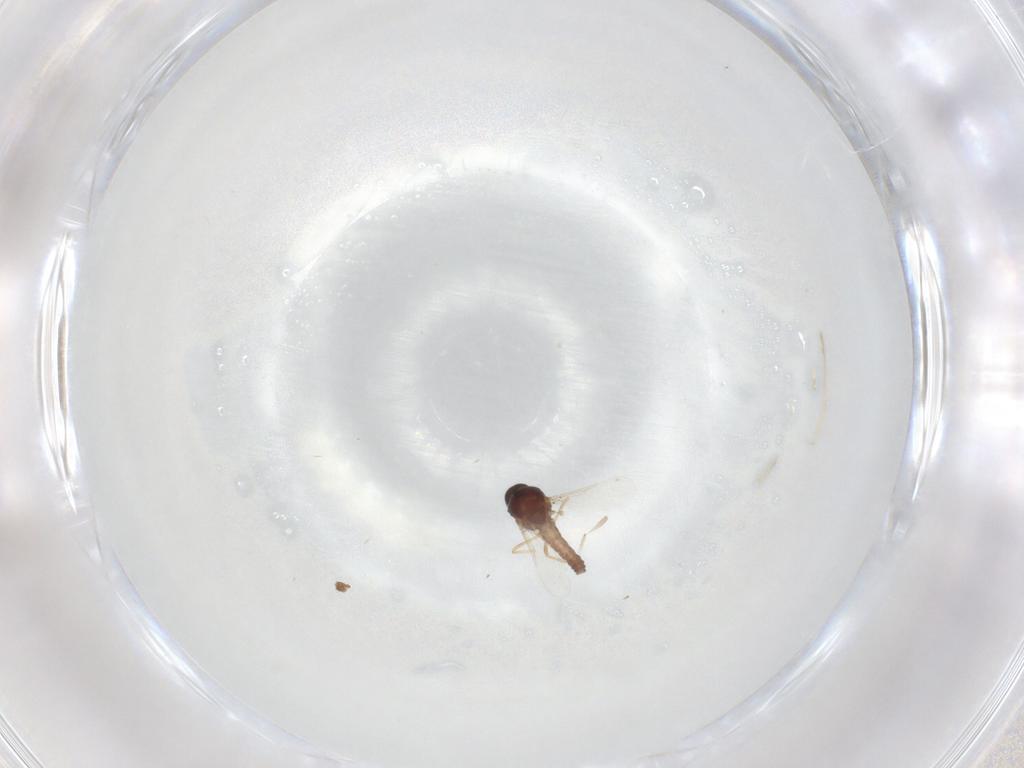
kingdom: Animalia
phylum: Arthropoda
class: Insecta
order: Diptera
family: Ceratopogonidae
